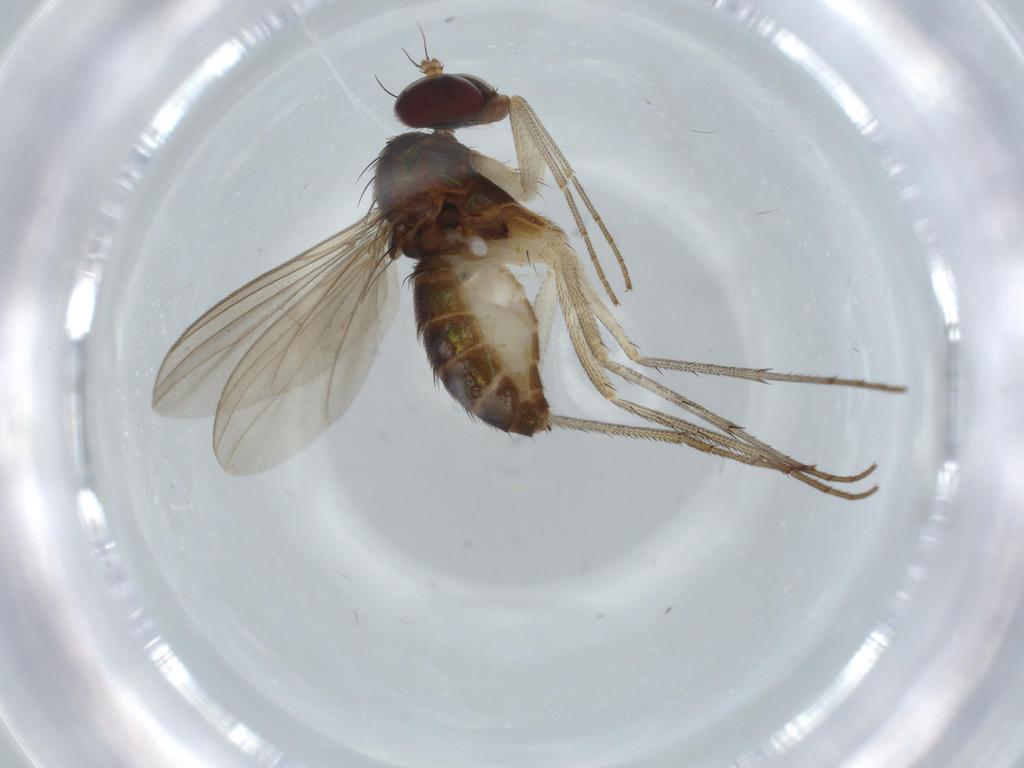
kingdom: Animalia
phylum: Arthropoda
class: Insecta
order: Diptera
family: Dolichopodidae
